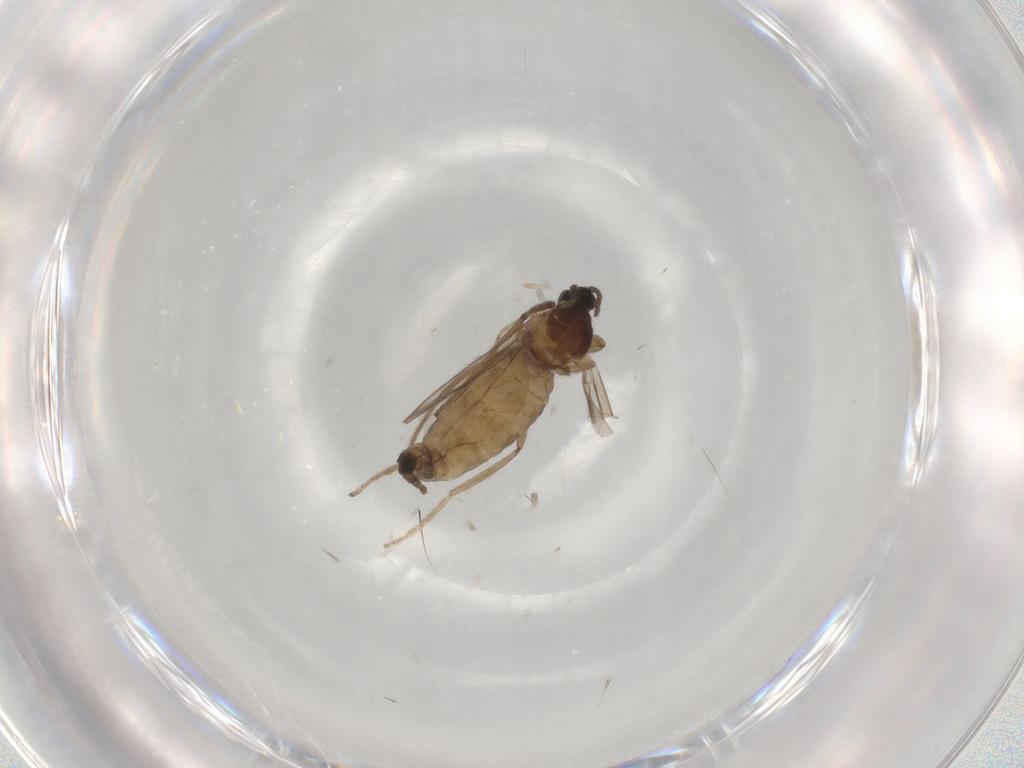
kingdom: Animalia
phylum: Arthropoda
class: Insecta
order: Diptera
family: Cecidomyiidae
